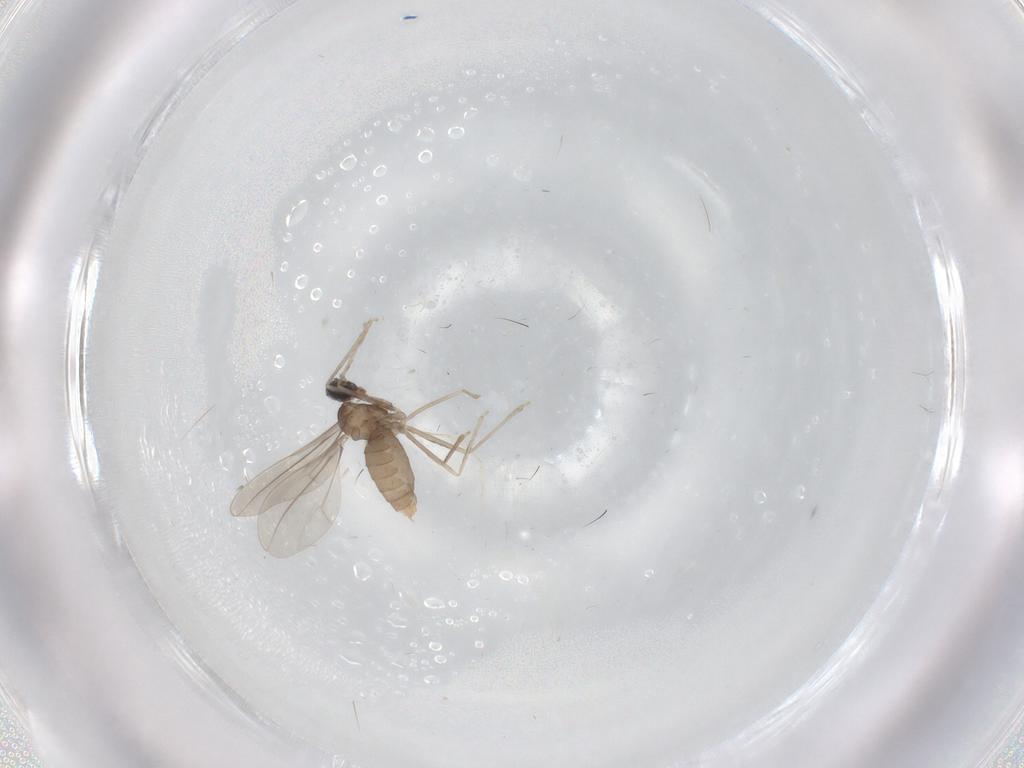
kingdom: Animalia
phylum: Arthropoda
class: Insecta
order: Diptera
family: Cecidomyiidae
